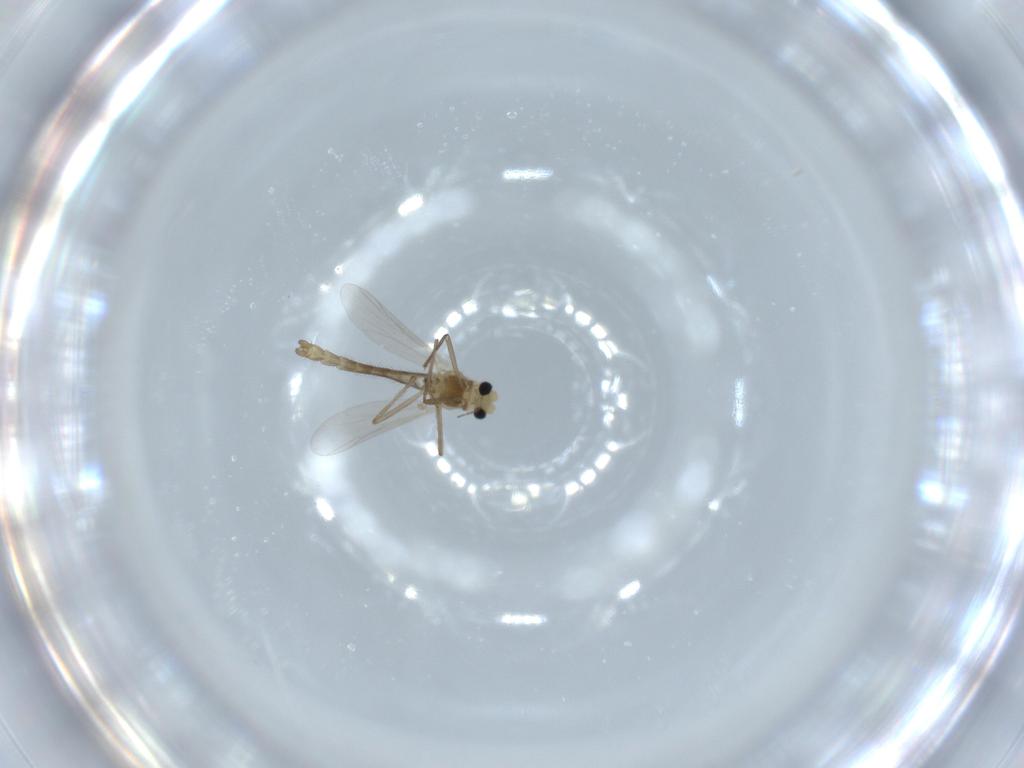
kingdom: Animalia
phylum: Arthropoda
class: Insecta
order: Diptera
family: Chironomidae
